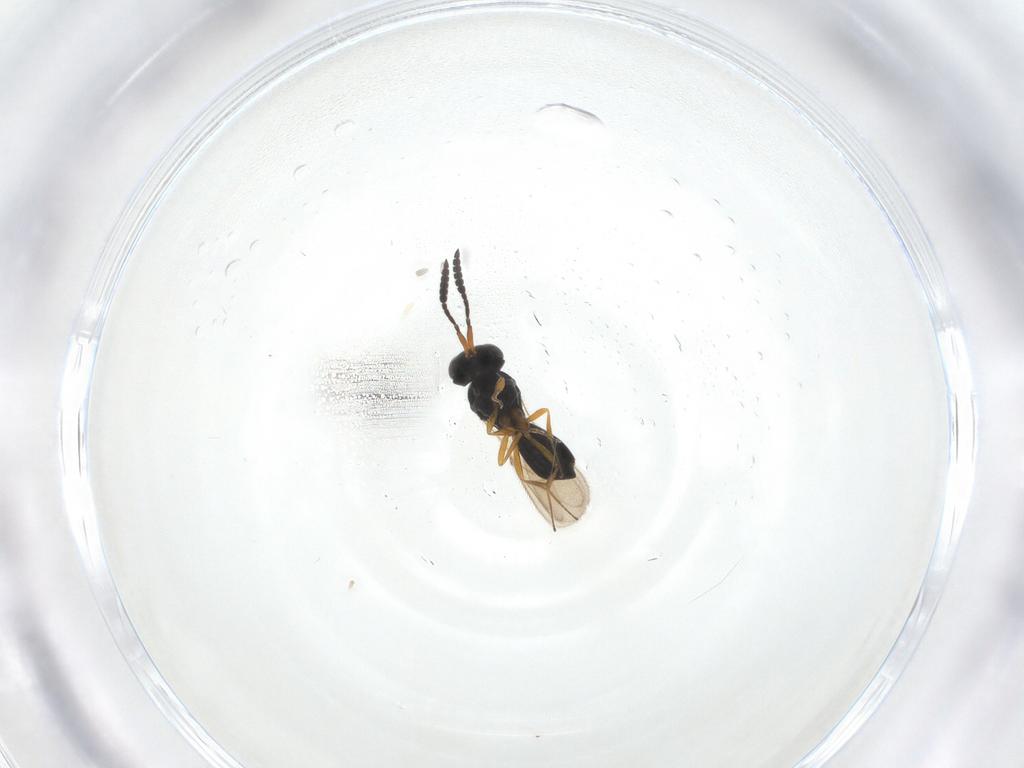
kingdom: Animalia
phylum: Arthropoda
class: Insecta
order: Hymenoptera
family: Scelionidae
